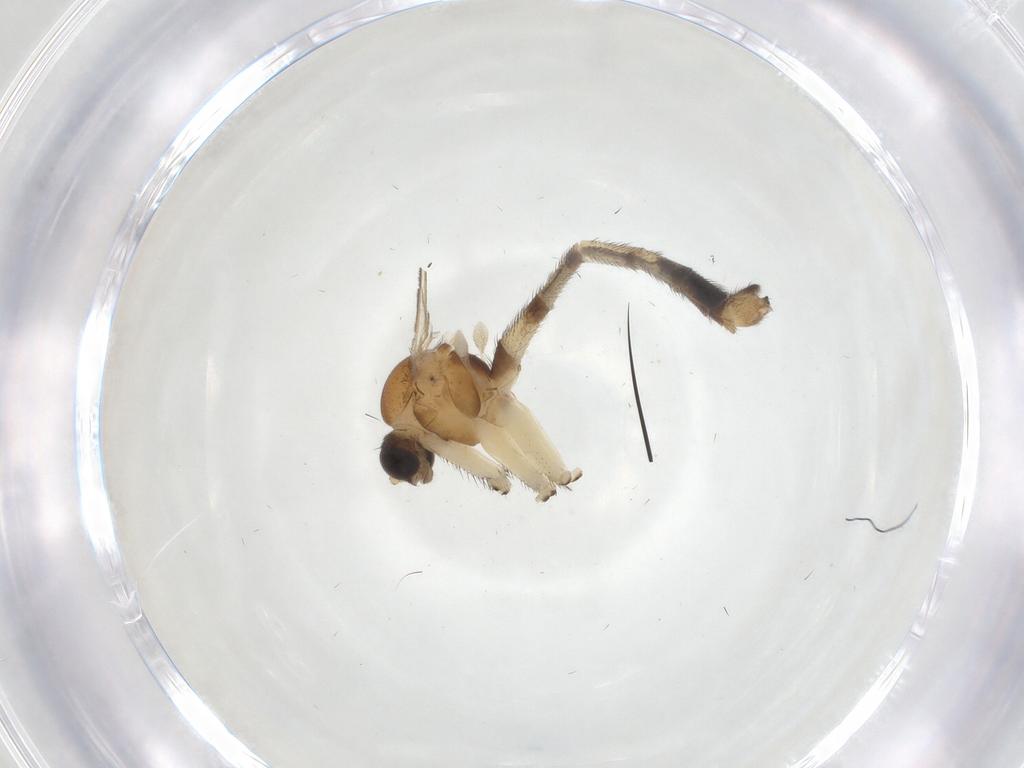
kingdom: Animalia
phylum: Arthropoda
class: Insecta
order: Diptera
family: Keroplatidae
